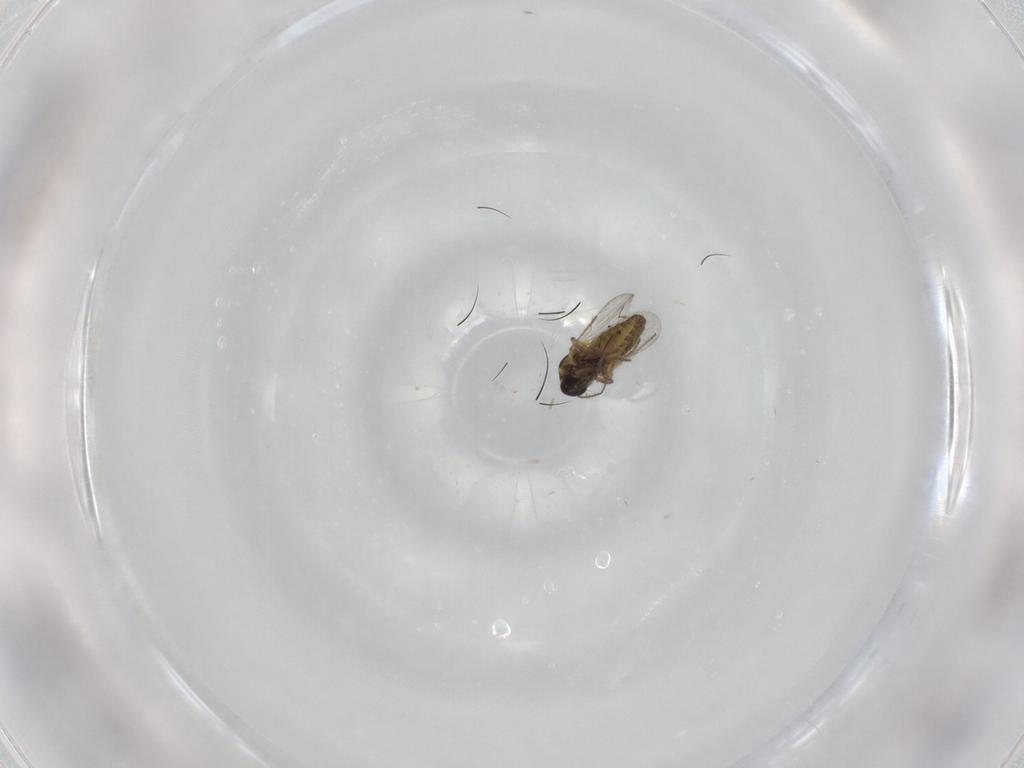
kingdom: Animalia
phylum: Arthropoda
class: Insecta
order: Diptera
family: Ceratopogonidae
